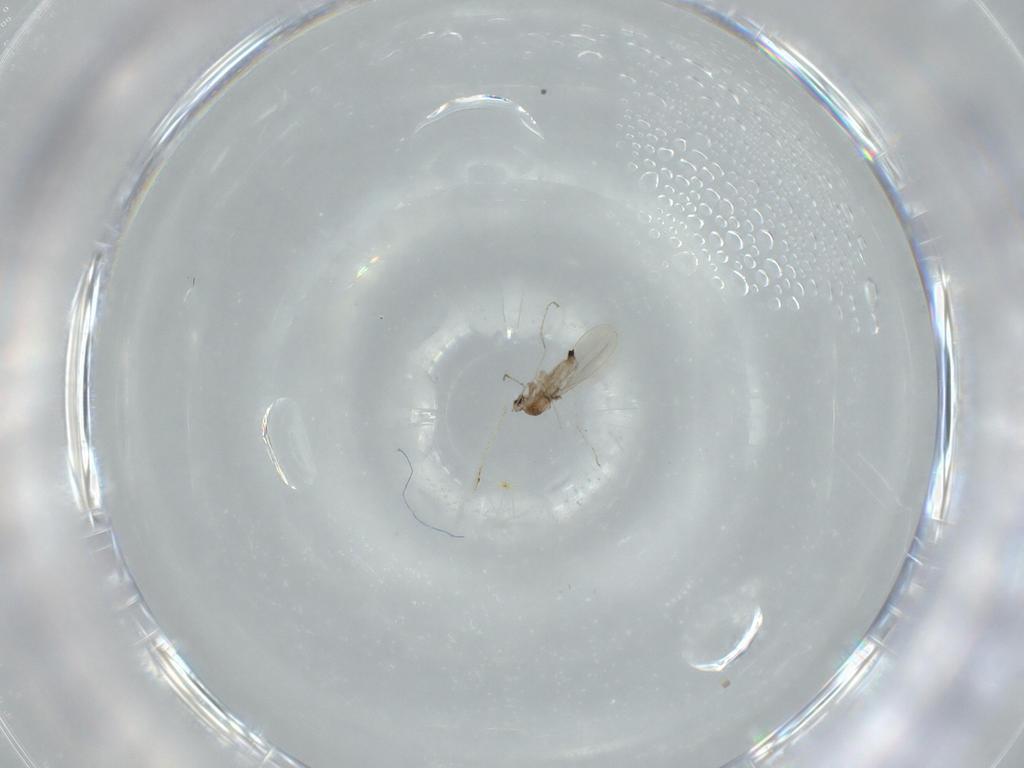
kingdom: Animalia
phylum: Arthropoda
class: Insecta
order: Diptera
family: Cecidomyiidae
